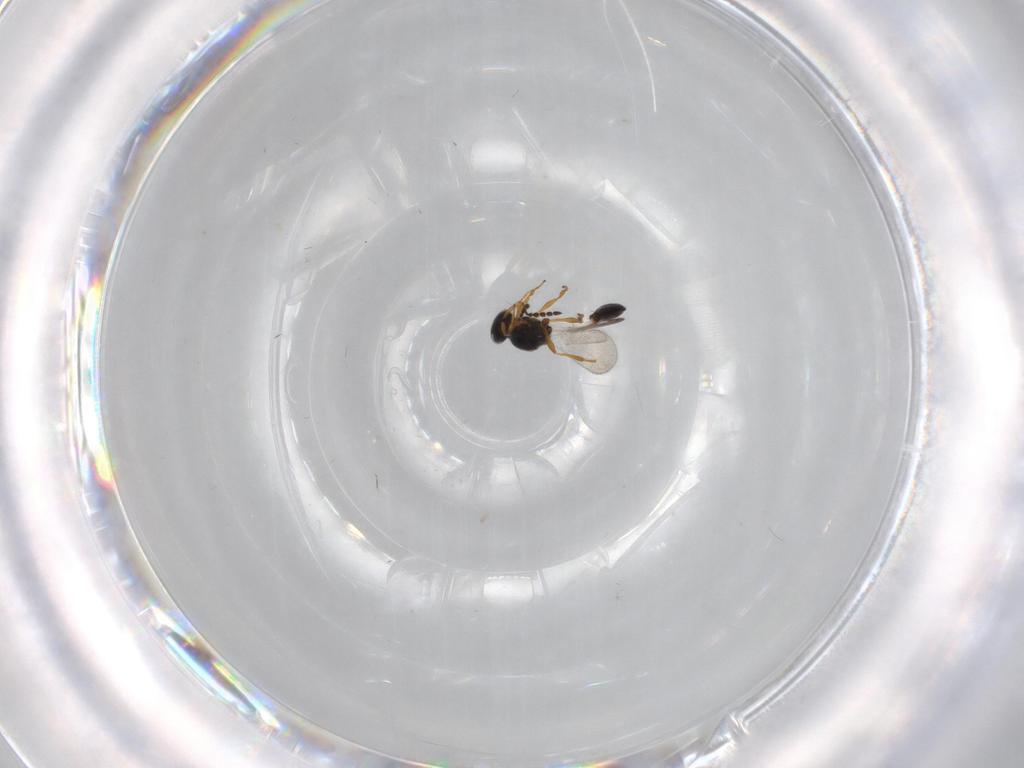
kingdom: Animalia
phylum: Arthropoda
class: Insecta
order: Hymenoptera
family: Platygastridae
